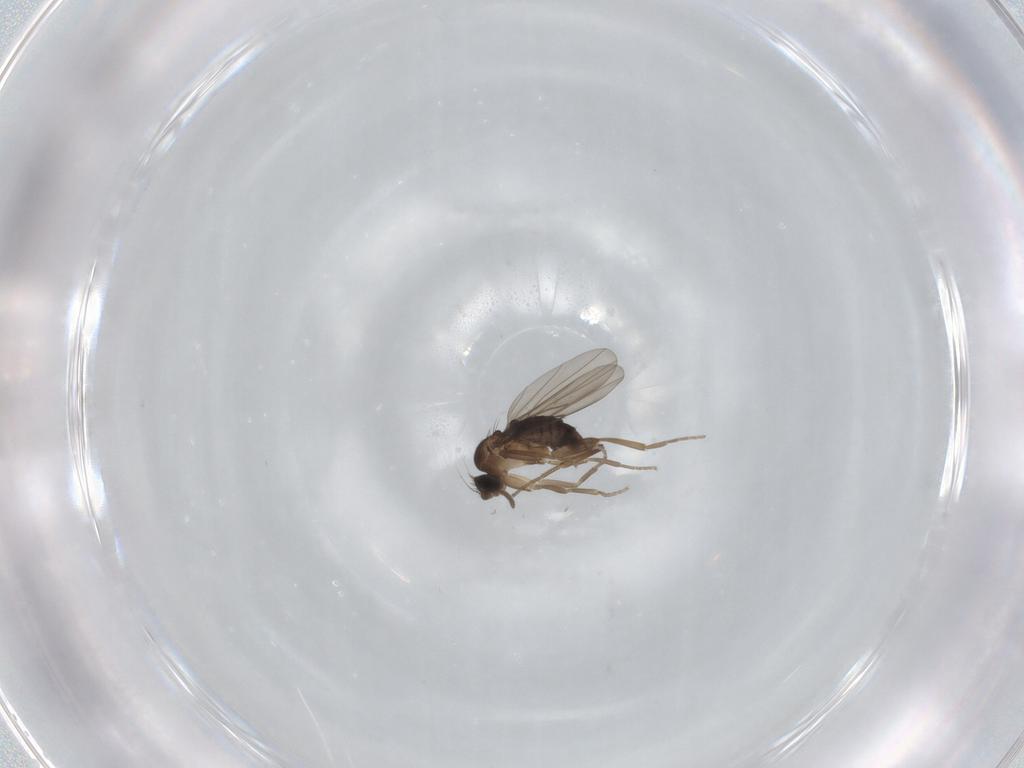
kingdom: Animalia
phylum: Arthropoda
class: Insecta
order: Diptera
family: Phoridae
